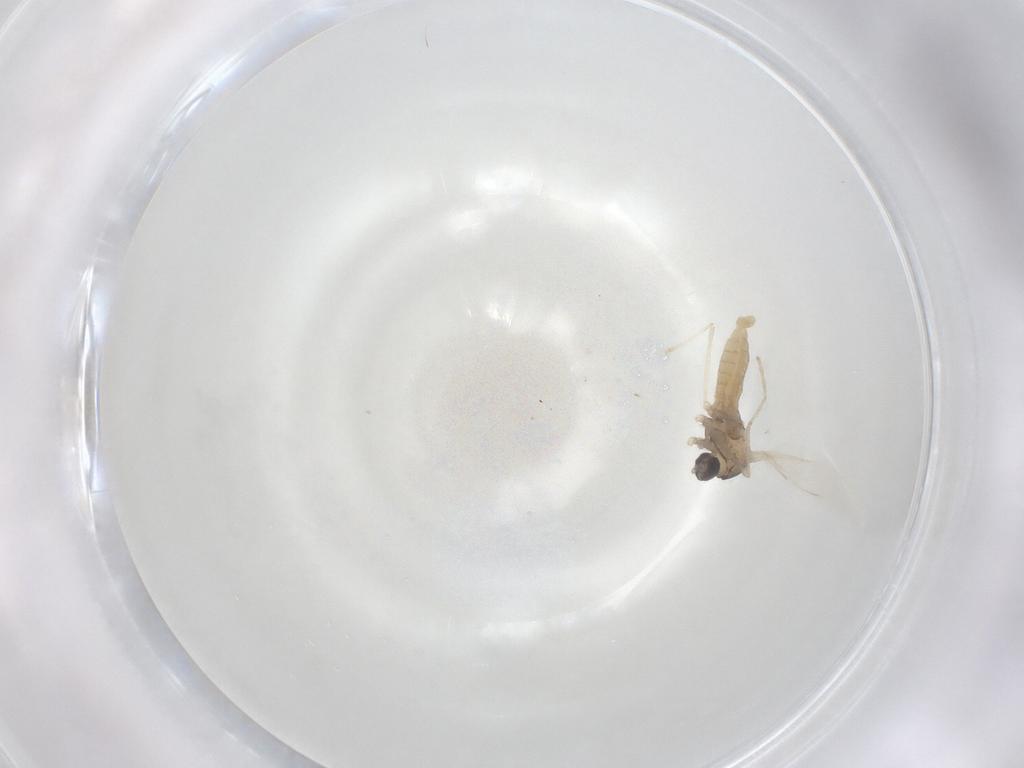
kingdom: Animalia
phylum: Arthropoda
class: Insecta
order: Diptera
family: Cecidomyiidae
